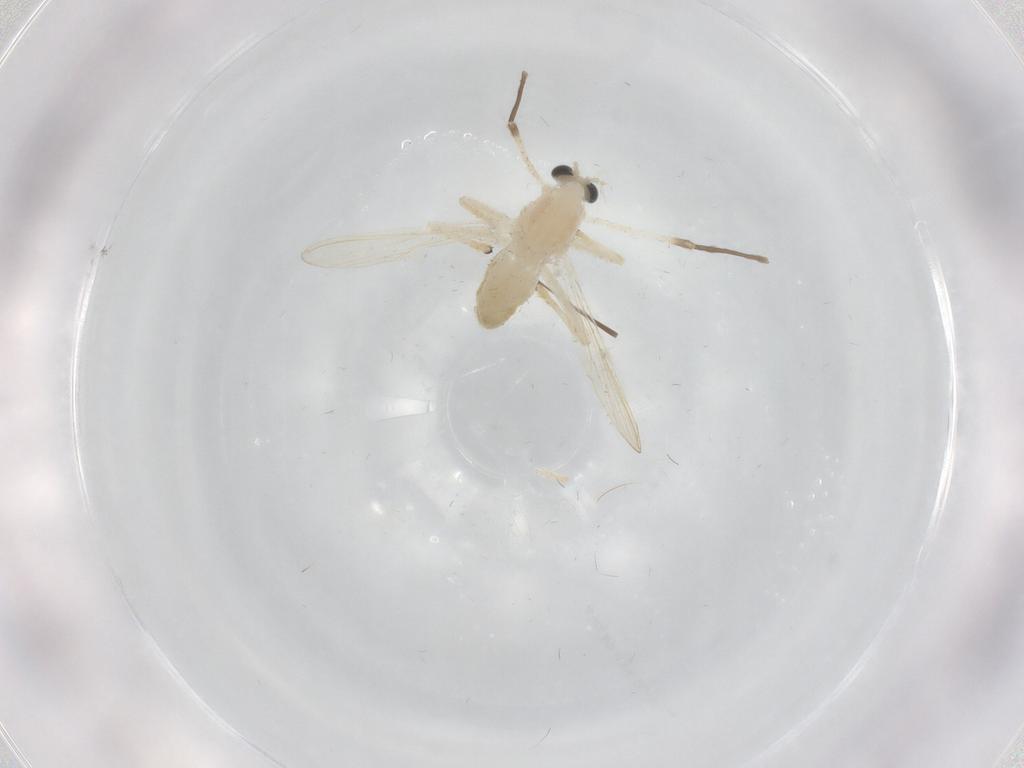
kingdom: Animalia
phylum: Arthropoda
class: Insecta
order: Diptera
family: Chironomidae
